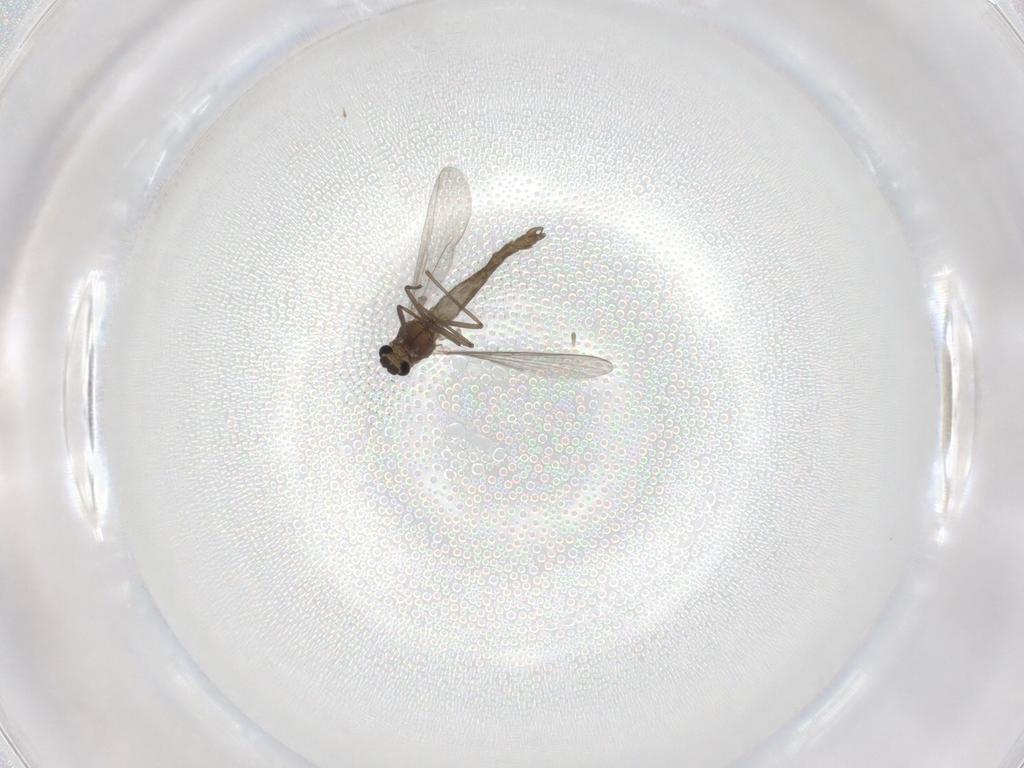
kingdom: Animalia
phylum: Arthropoda
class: Insecta
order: Diptera
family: Chironomidae
